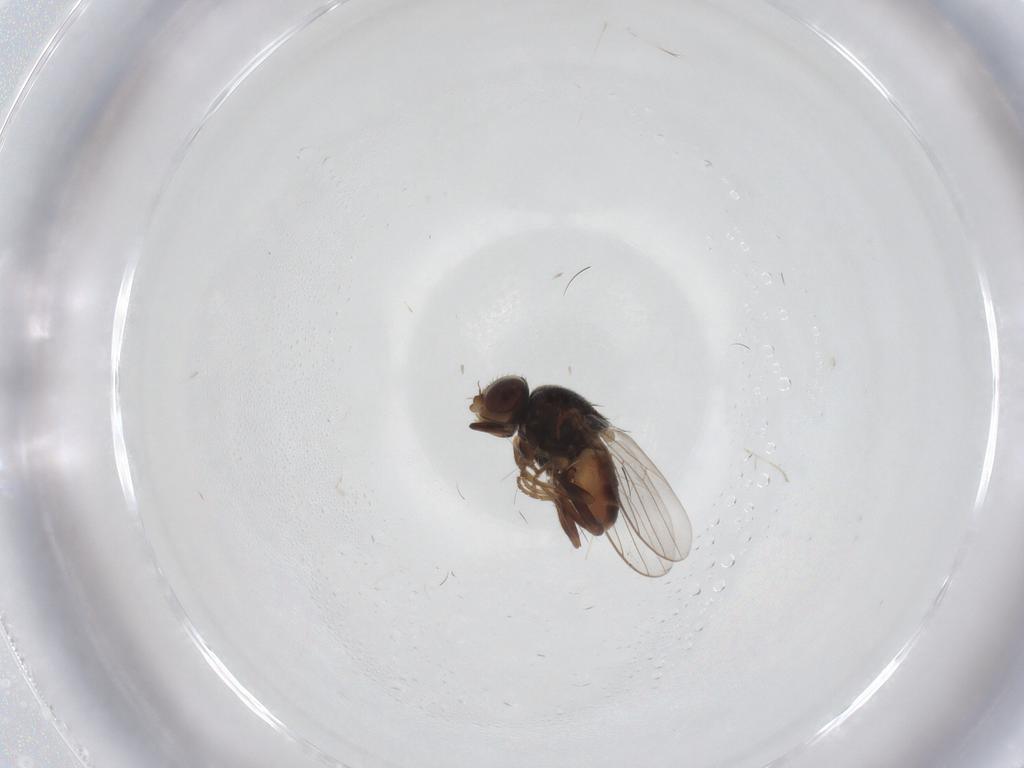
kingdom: Animalia
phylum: Arthropoda
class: Insecta
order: Diptera
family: Chloropidae
